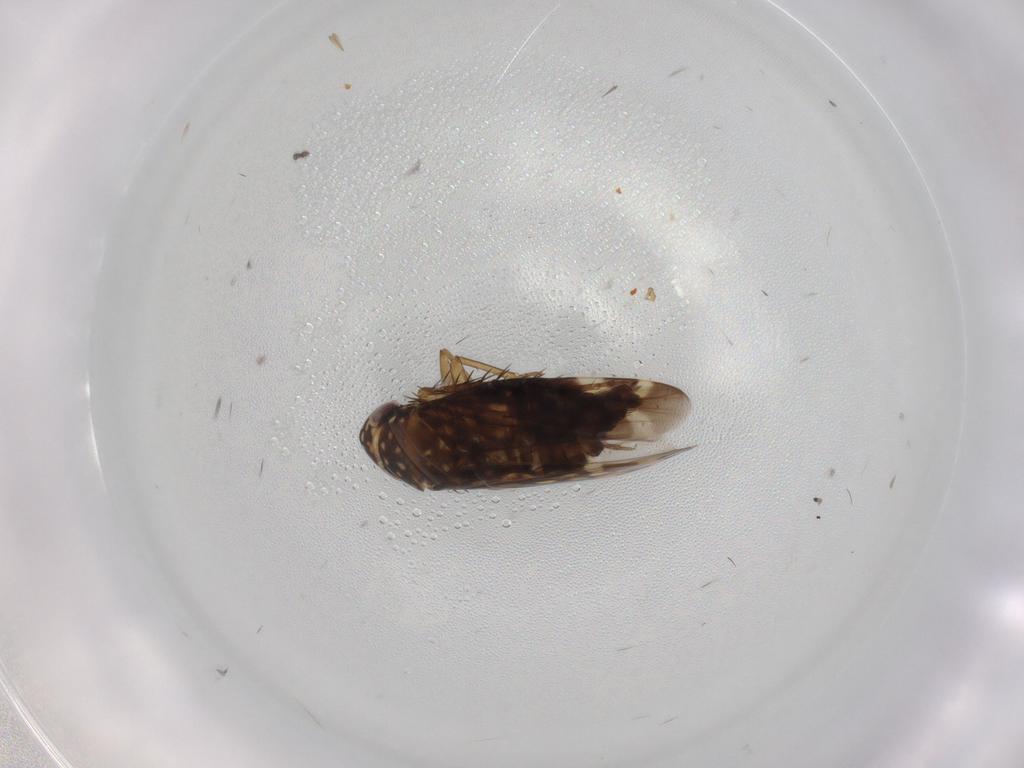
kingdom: Animalia
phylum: Arthropoda
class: Insecta
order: Hemiptera
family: Cicadellidae
